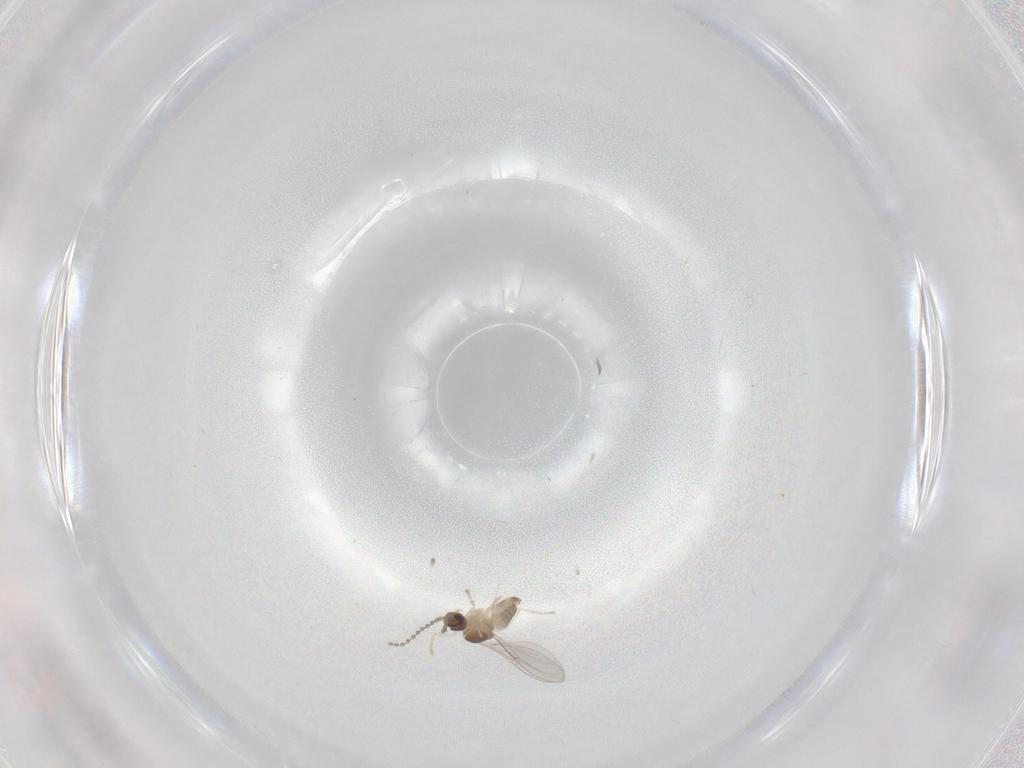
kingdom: Animalia
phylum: Arthropoda
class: Insecta
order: Diptera
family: Cecidomyiidae
